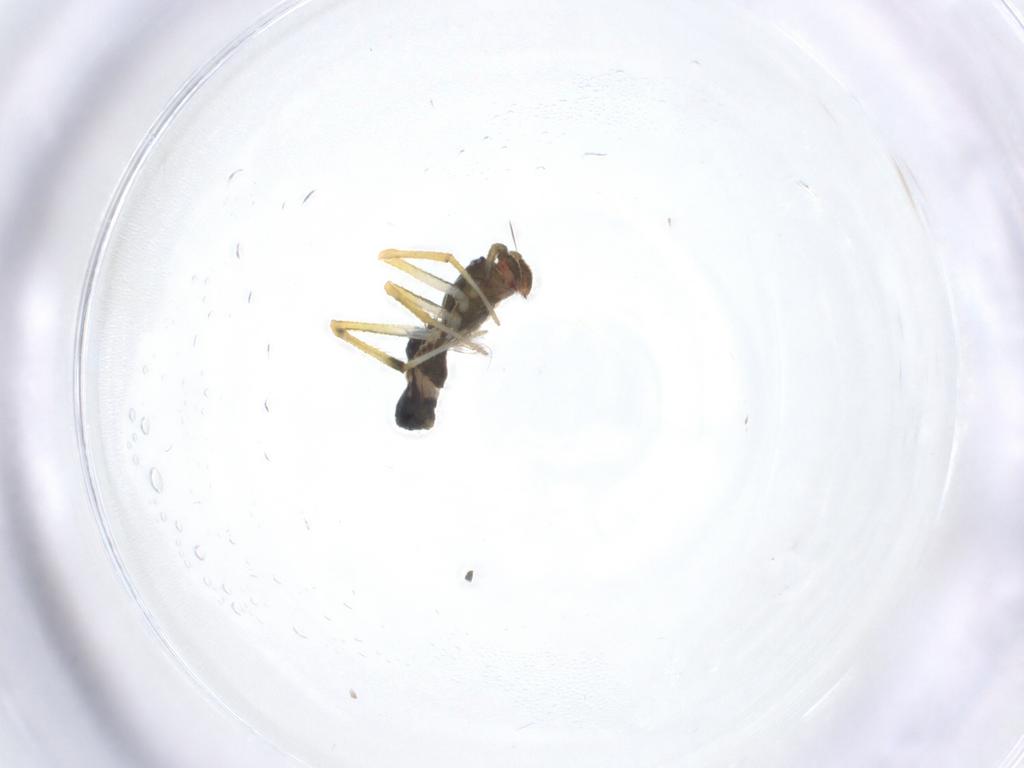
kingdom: Animalia
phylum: Arthropoda
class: Arachnida
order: Araneae
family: Theridiidae
